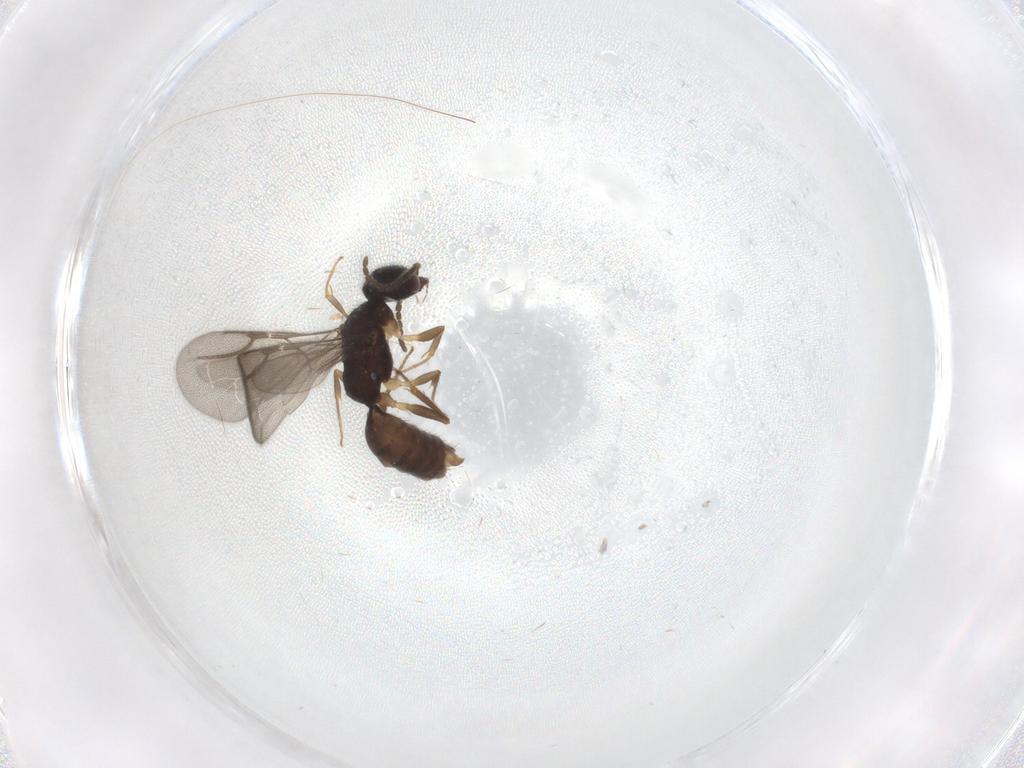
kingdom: Animalia
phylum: Arthropoda
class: Insecta
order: Hymenoptera
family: Bethylidae
